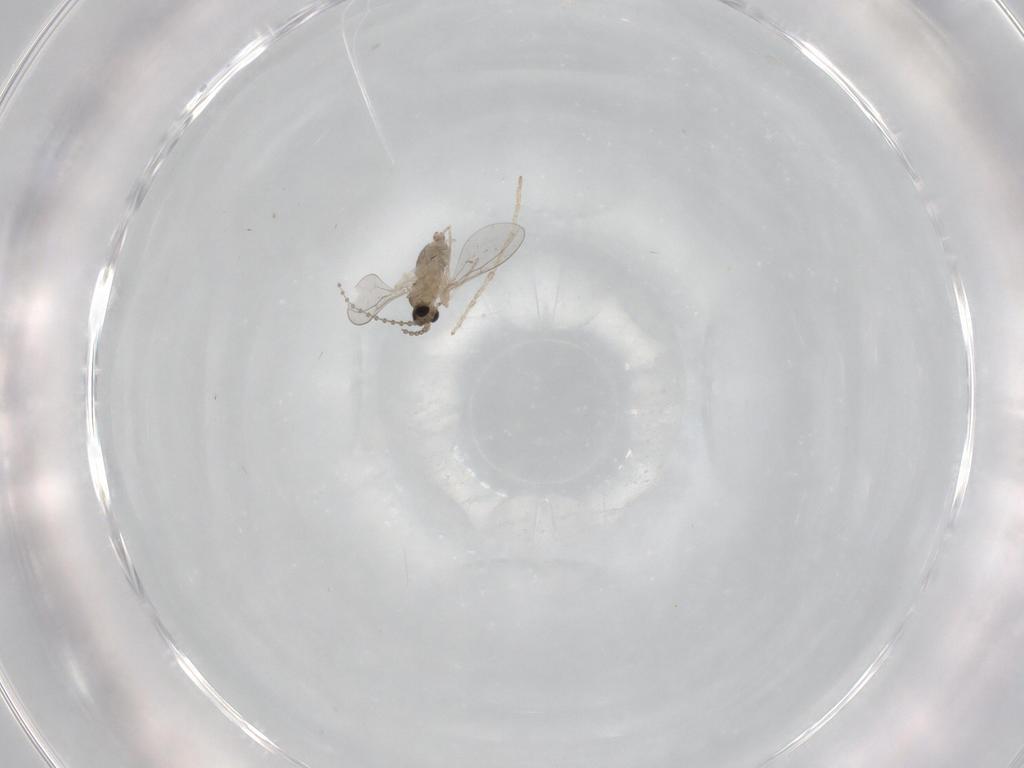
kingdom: Animalia
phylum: Arthropoda
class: Insecta
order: Diptera
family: Cecidomyiidae
